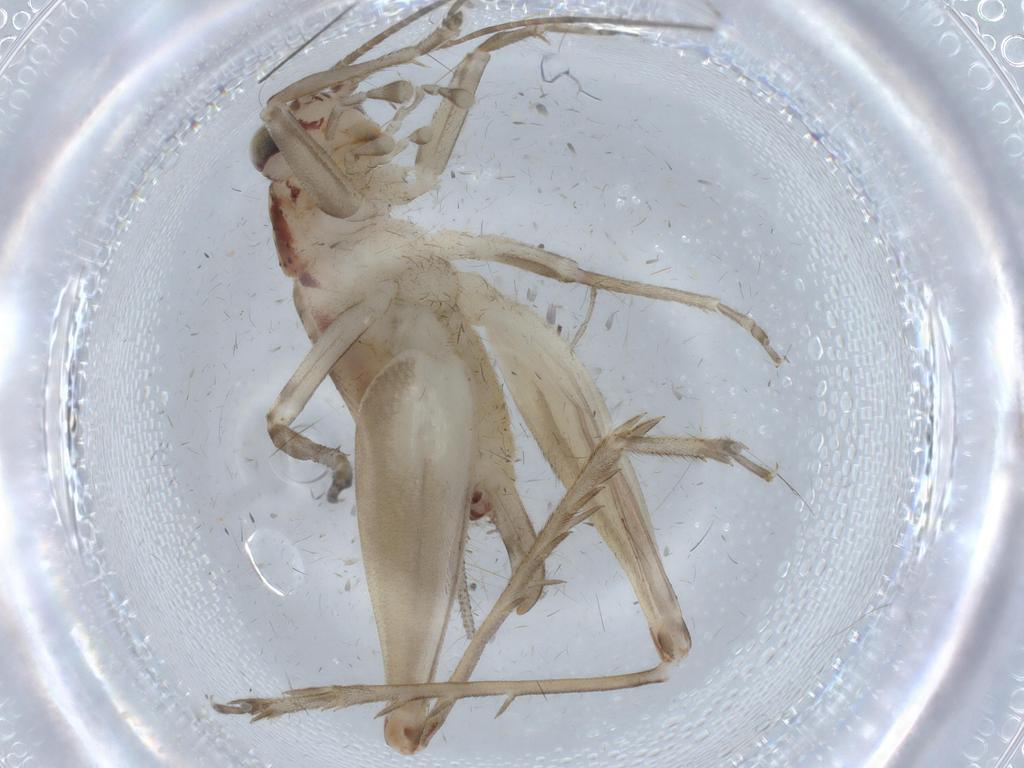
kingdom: Animalia
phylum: Arthropoda
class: Insecta
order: Orthoptera
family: Trigonidiidae
